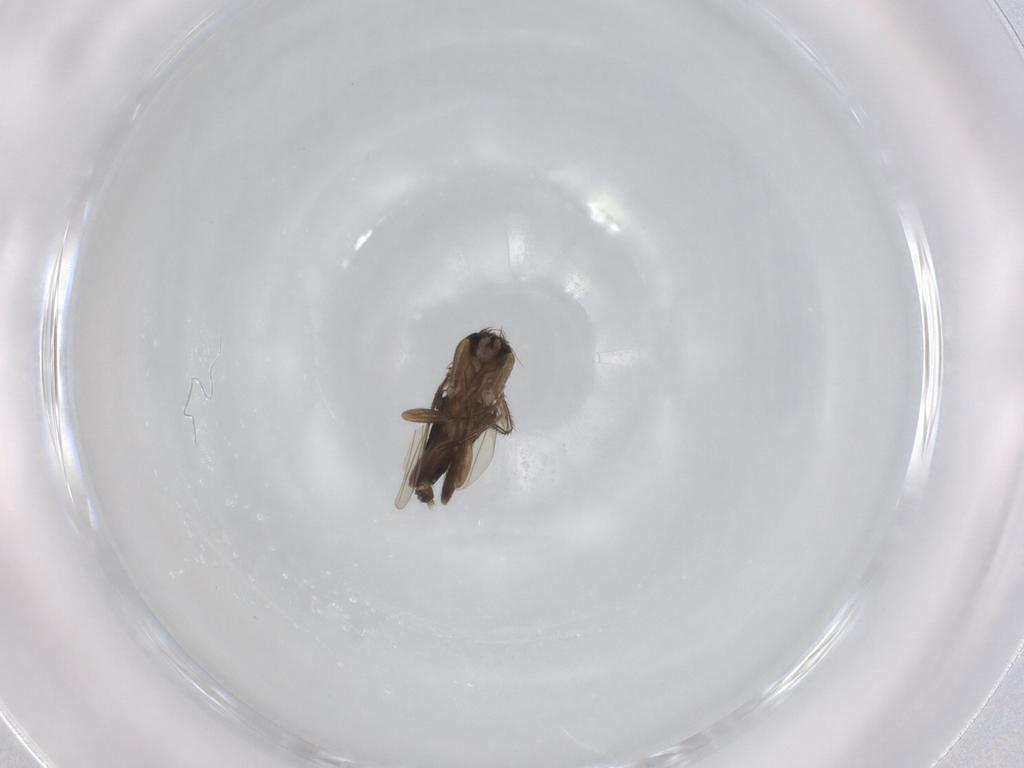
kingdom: Animalia
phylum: Arthropoda
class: Insecta
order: Diptera
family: Phoridae
